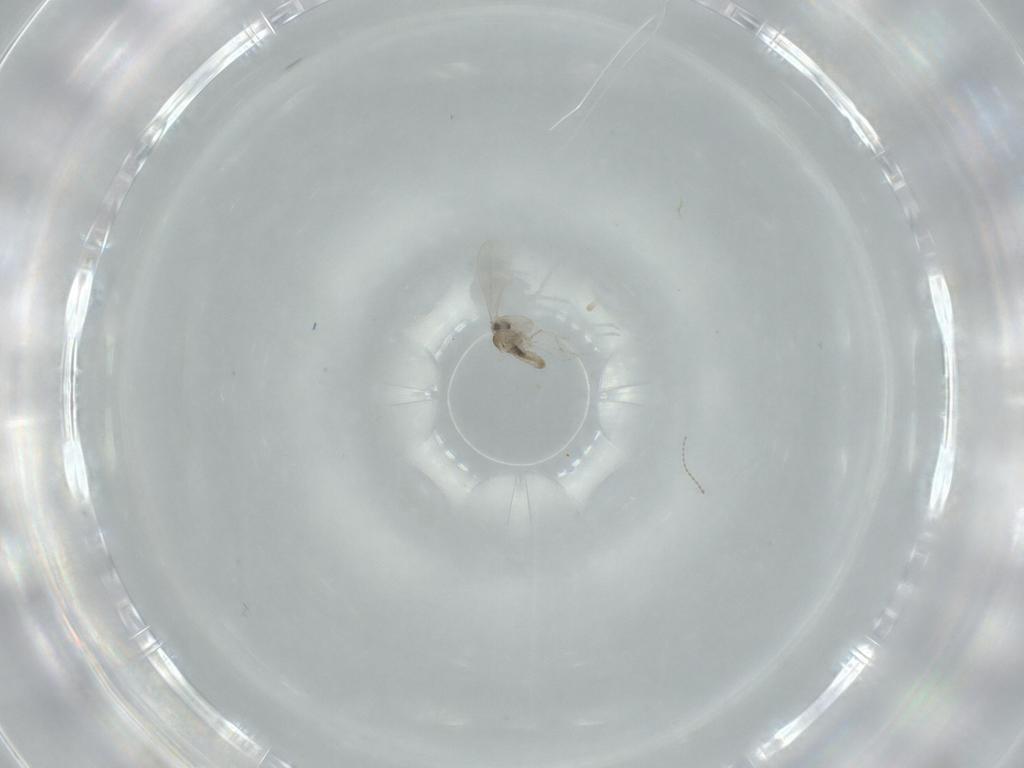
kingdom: Animalia
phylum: Arthropoda
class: Insecta
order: Diptera
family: Cecidomyiidae
